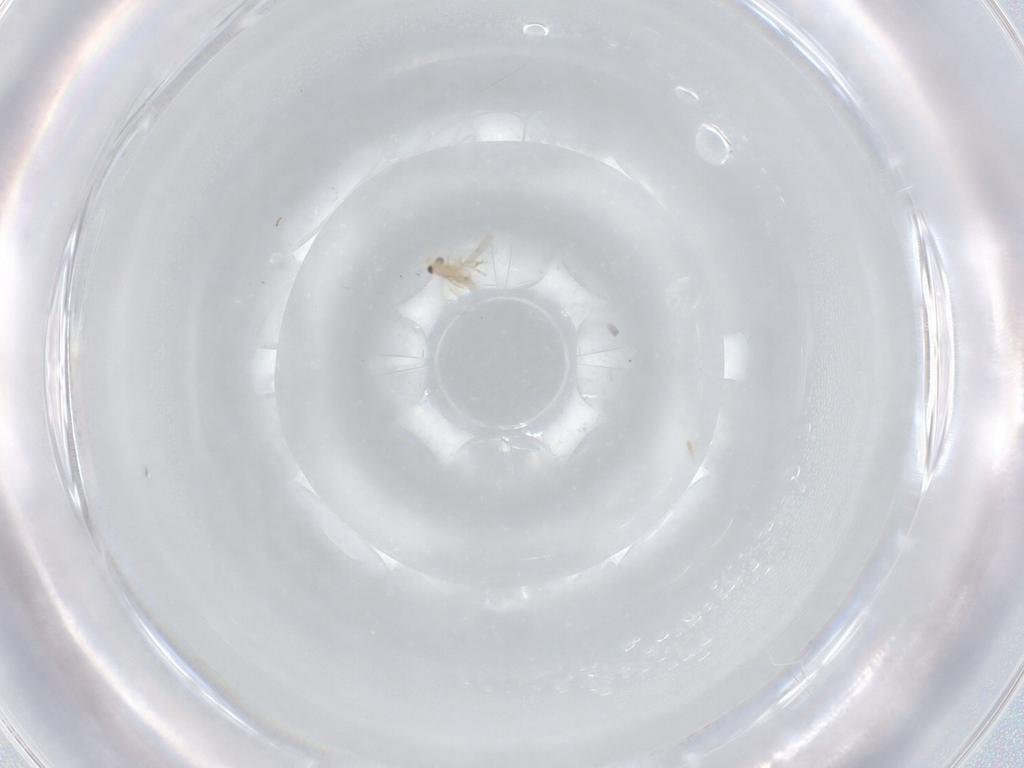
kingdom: Animalia
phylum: Arthropoda
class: Insecta
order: Hymenoptera
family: Aphelinidae
